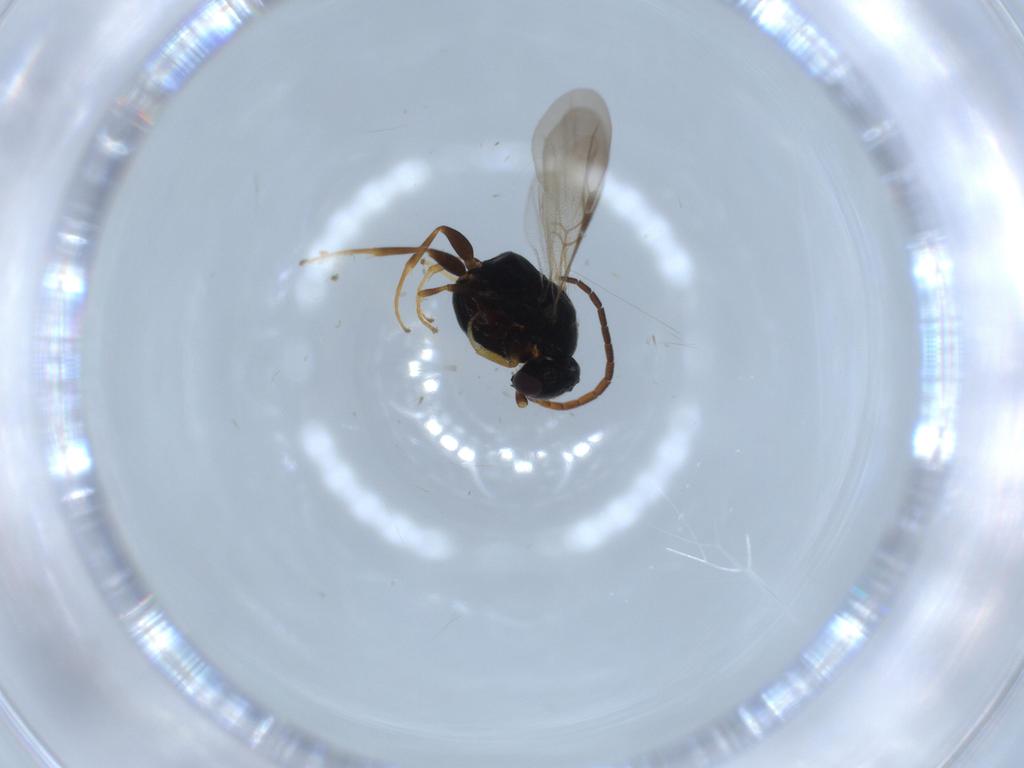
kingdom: Animalia
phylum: Arthropoda
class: Insecta
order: Hymenoptera
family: Bethylidae
